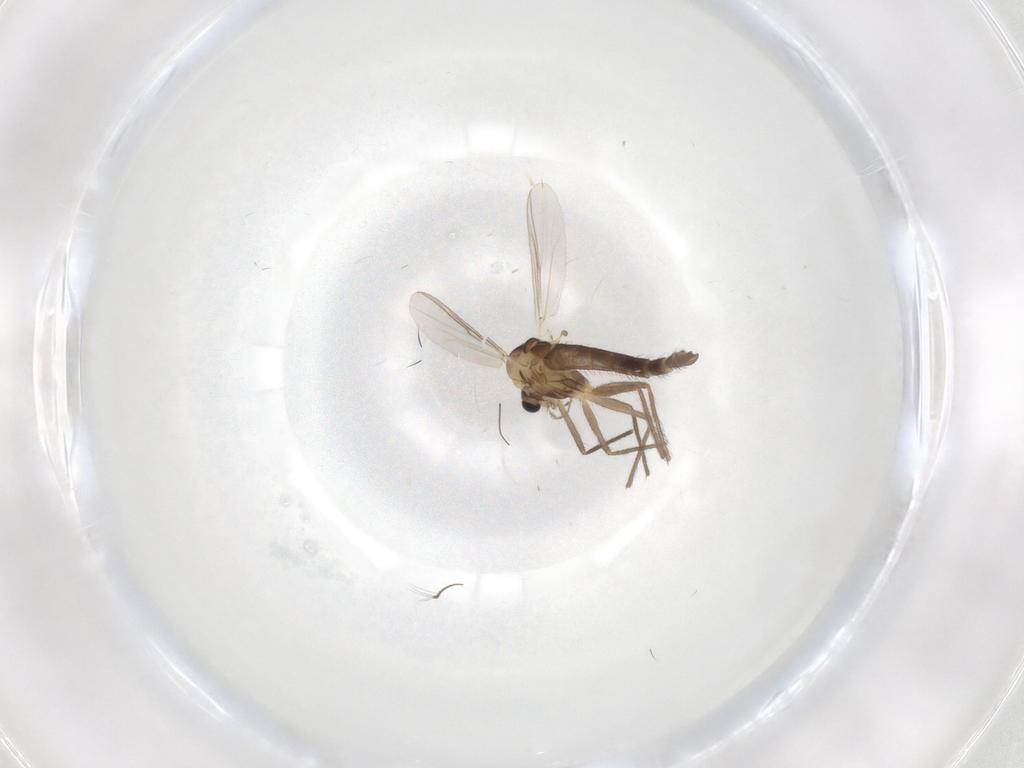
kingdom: Animalia
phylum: Arthropoda
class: Insecta
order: Diptera
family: Chironomidae
